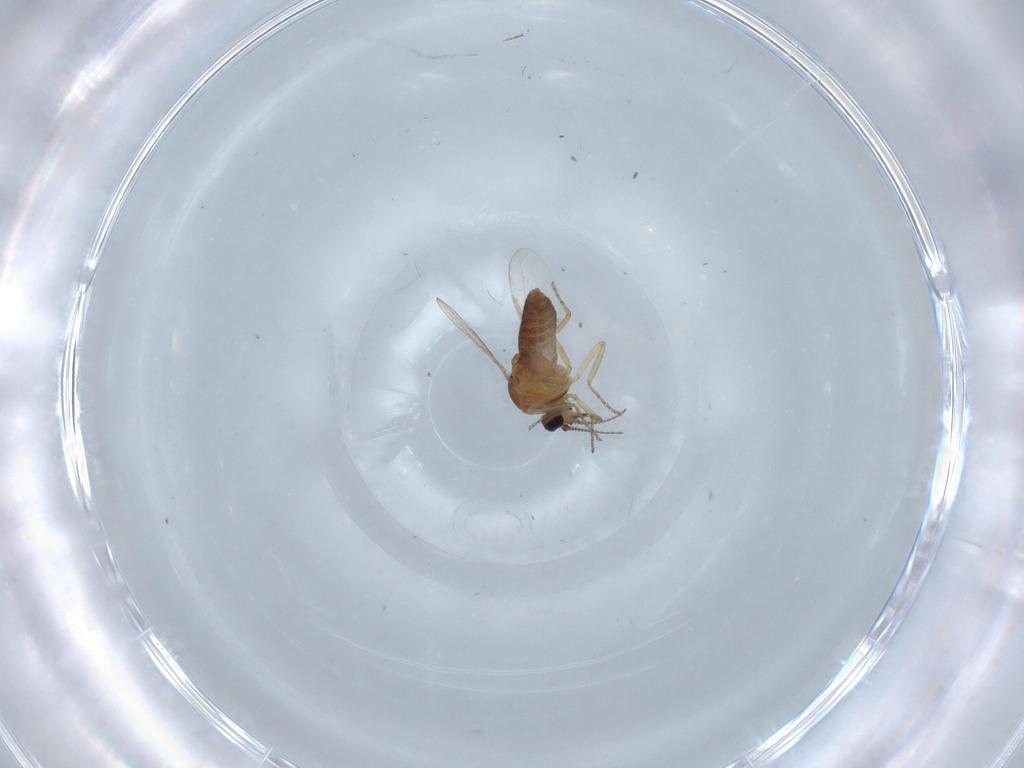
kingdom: Animalia
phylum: Arthropoda
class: Insecta
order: Diptera
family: Ceratopogonidae
